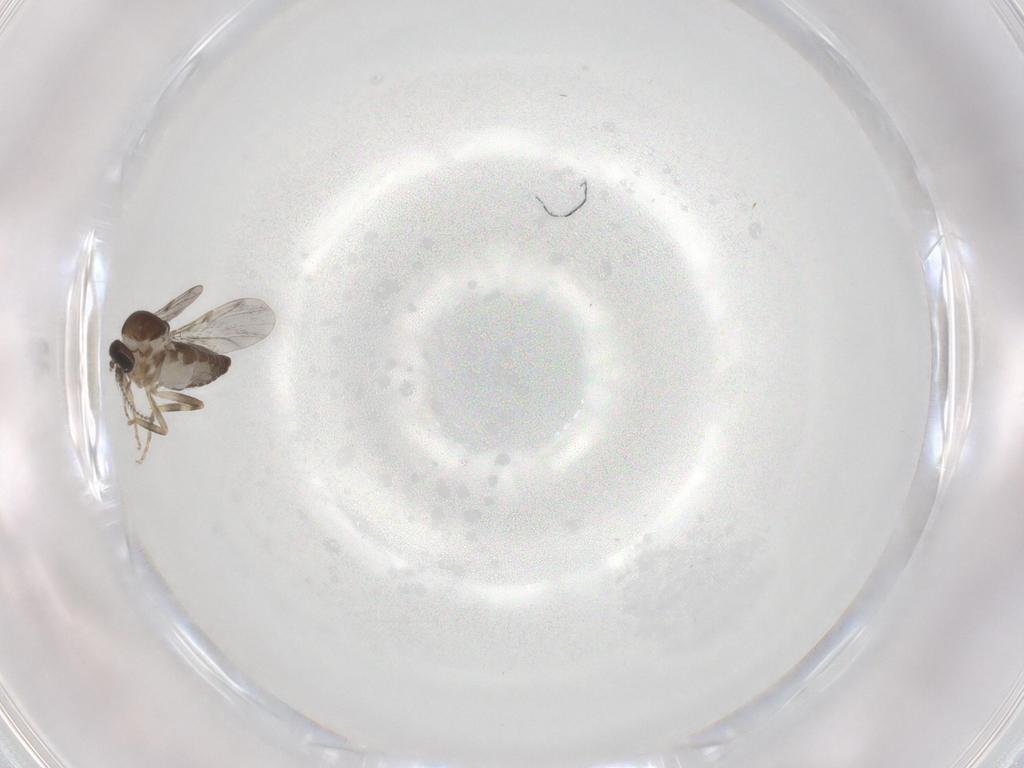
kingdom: Animalia
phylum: Arthropoda
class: Insecta
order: Diptera
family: Ceratopogonidae
